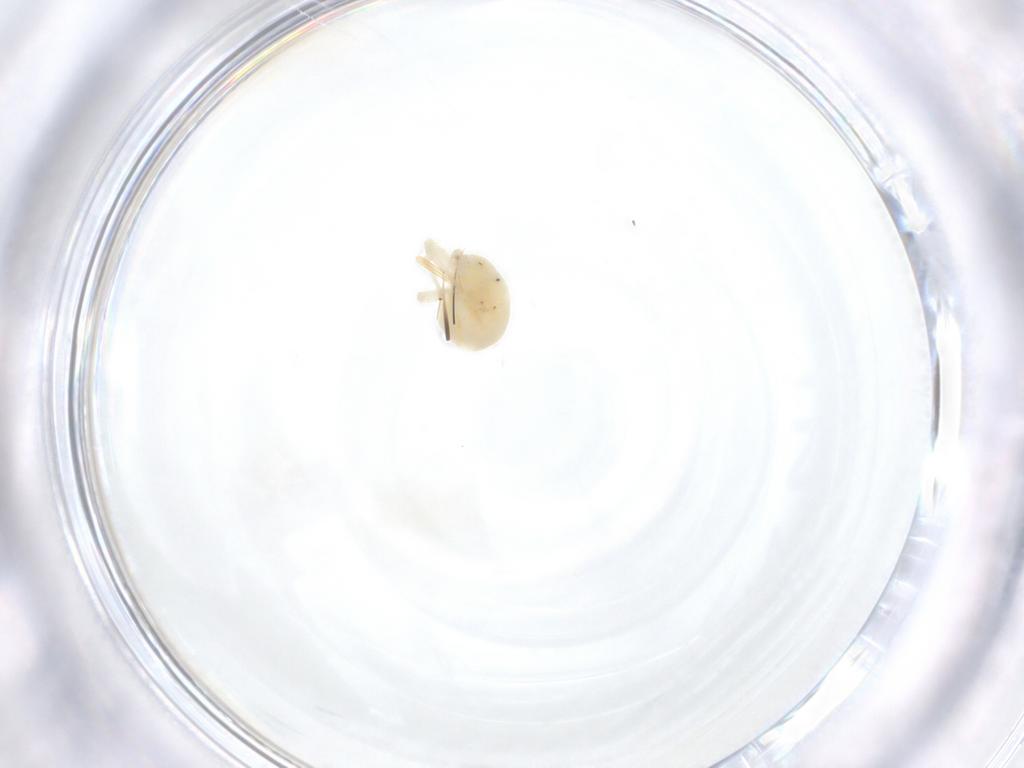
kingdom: Animalia
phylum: Arthropoda
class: Arachnida
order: Trombidiformes
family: Anystidae
